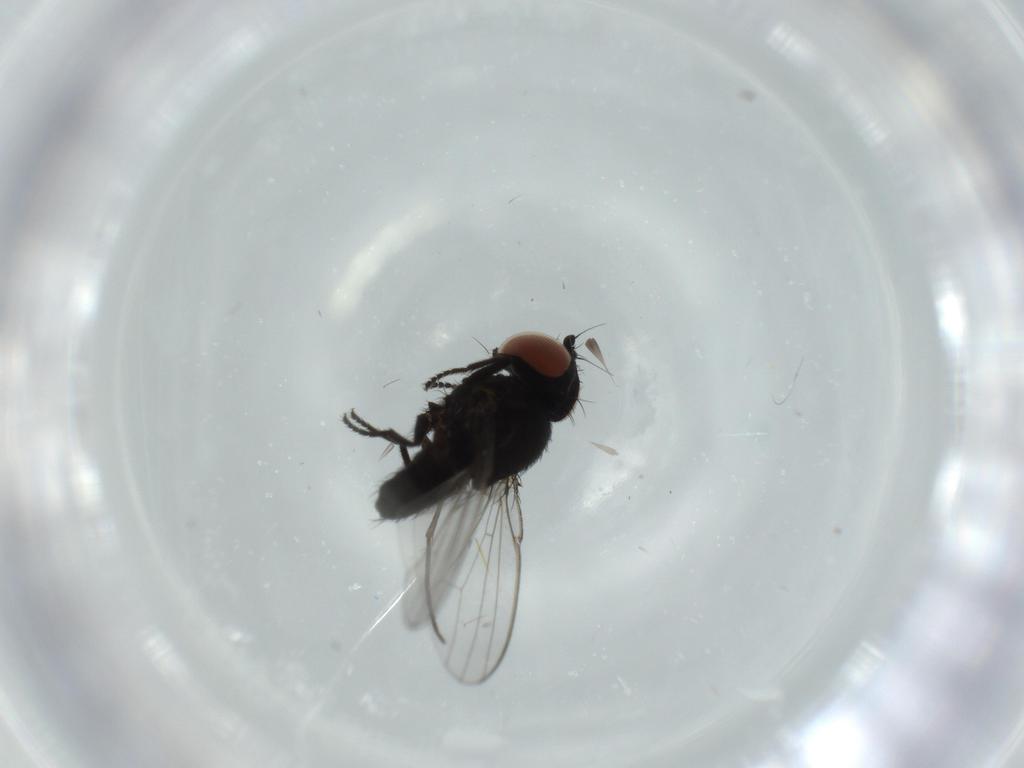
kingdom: Animalia
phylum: Arthropoda
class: Insecta
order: Diptera
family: Sciaridae
